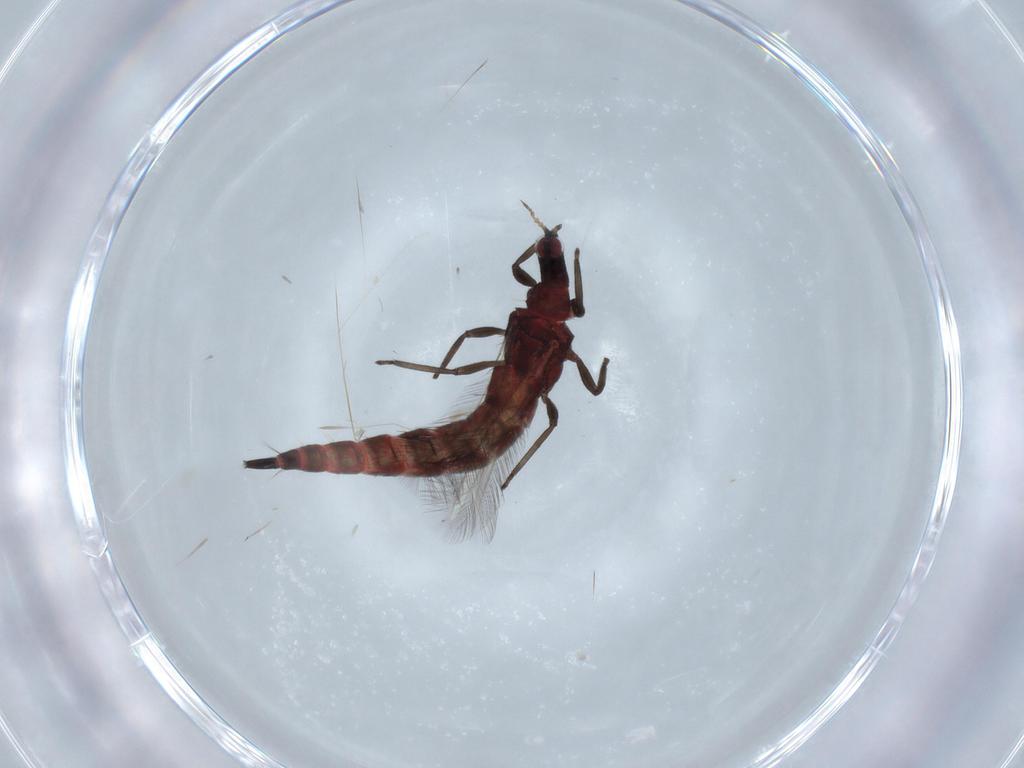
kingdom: Animalia
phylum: Arthropoda
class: Insecta
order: Thysanoptera
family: Phlaeothripidae
